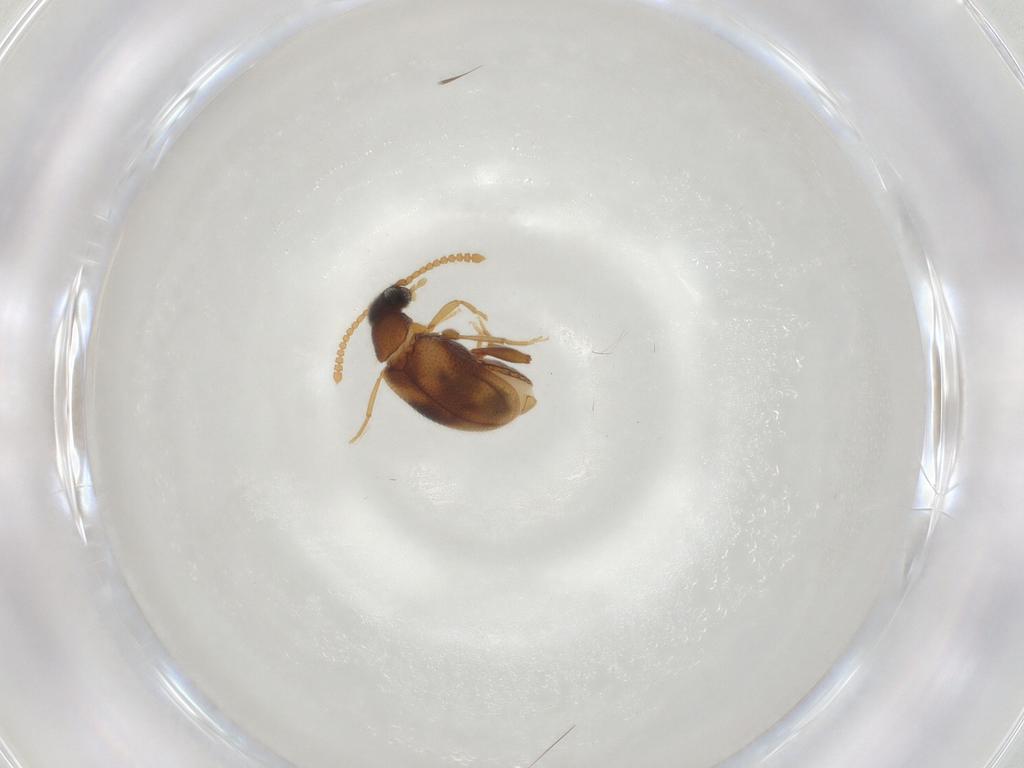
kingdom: Animalia
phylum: Arthropoda
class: Insecta
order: Coleoptera
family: Aderidae
